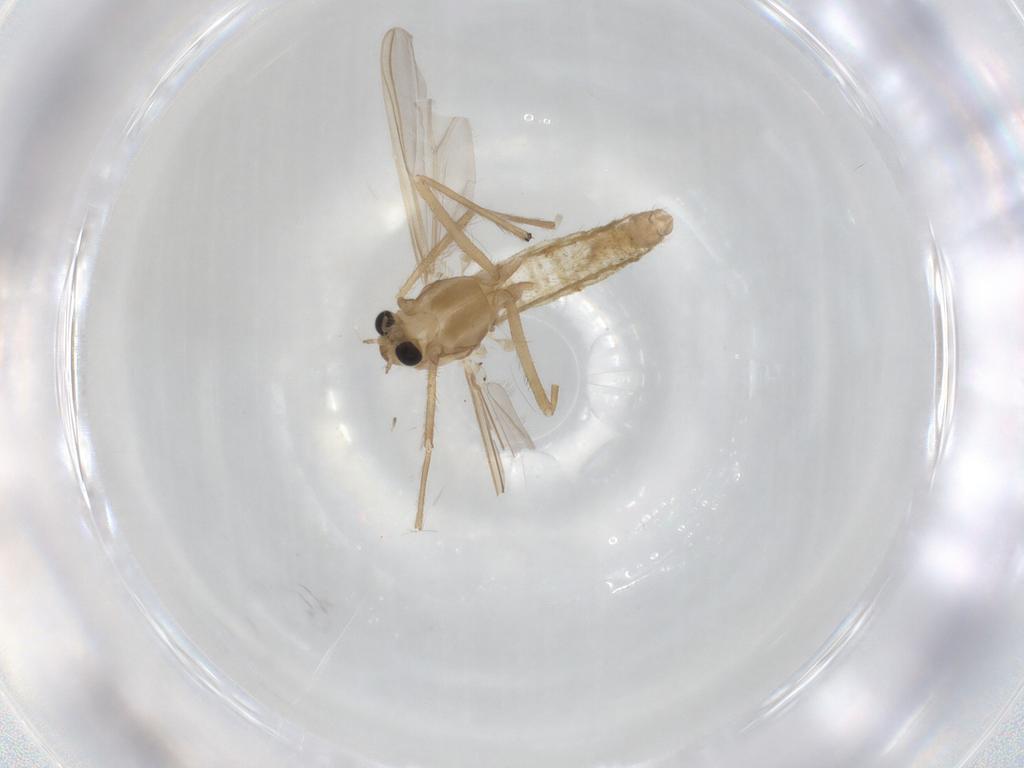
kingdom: Animalia
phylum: Arthropoda
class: Insecta
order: Diptera
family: Chironomidae
